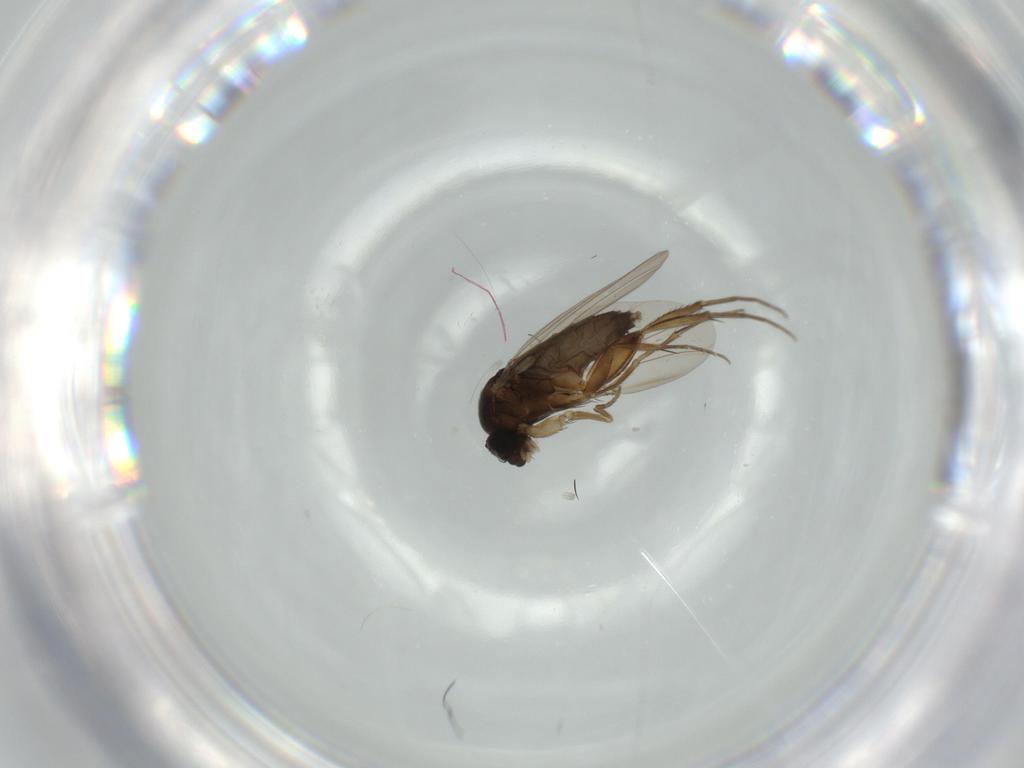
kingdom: Animalia
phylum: Arthropoda
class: Insecta
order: Diptera
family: Phoridae
